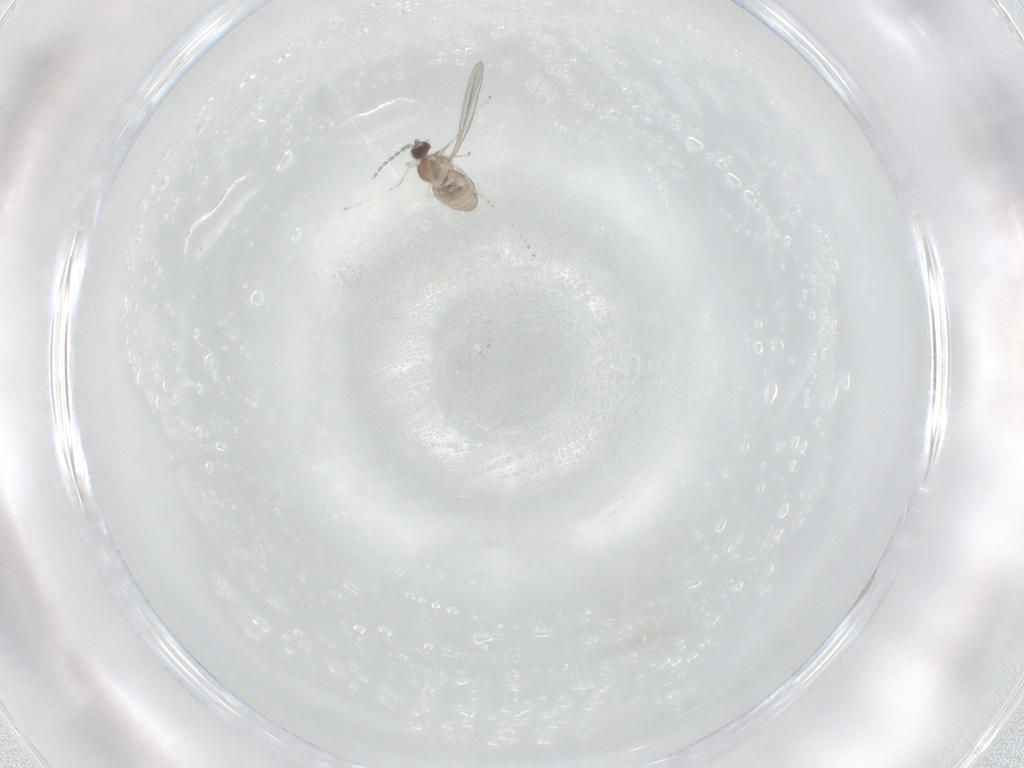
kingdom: Animalia
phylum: Arthropoda
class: Insecta
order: Diptera
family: Cecidomyiidae
